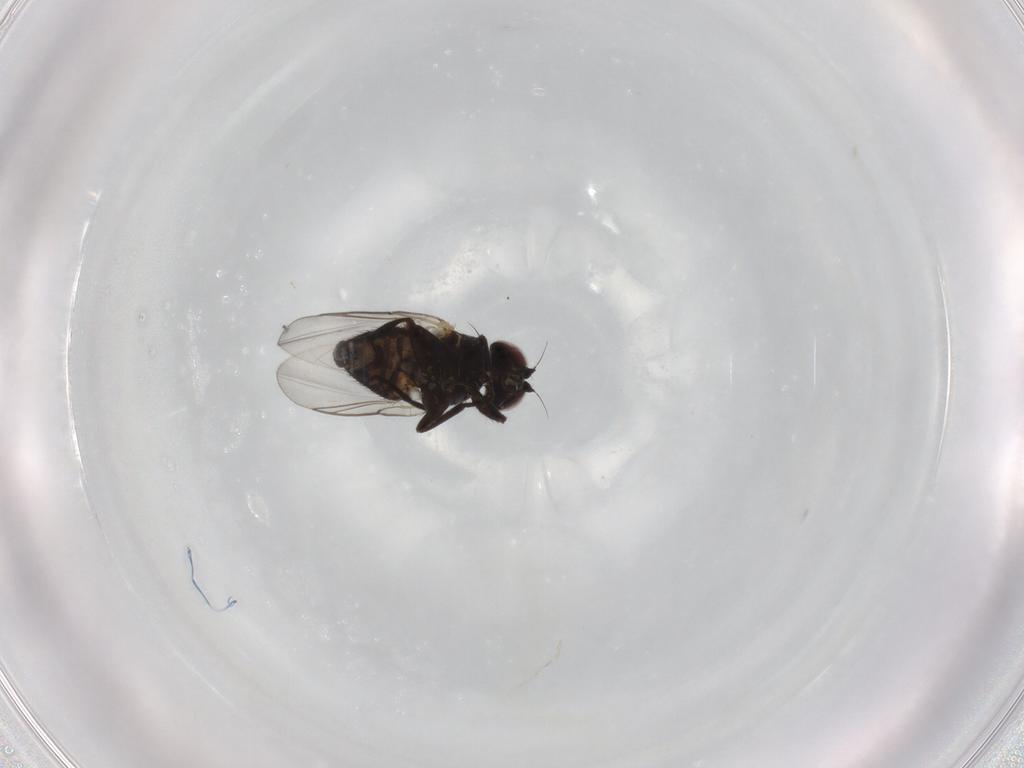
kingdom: Animalia
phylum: Arthropoda
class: Insecta
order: Diptera
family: Agromyzidae
